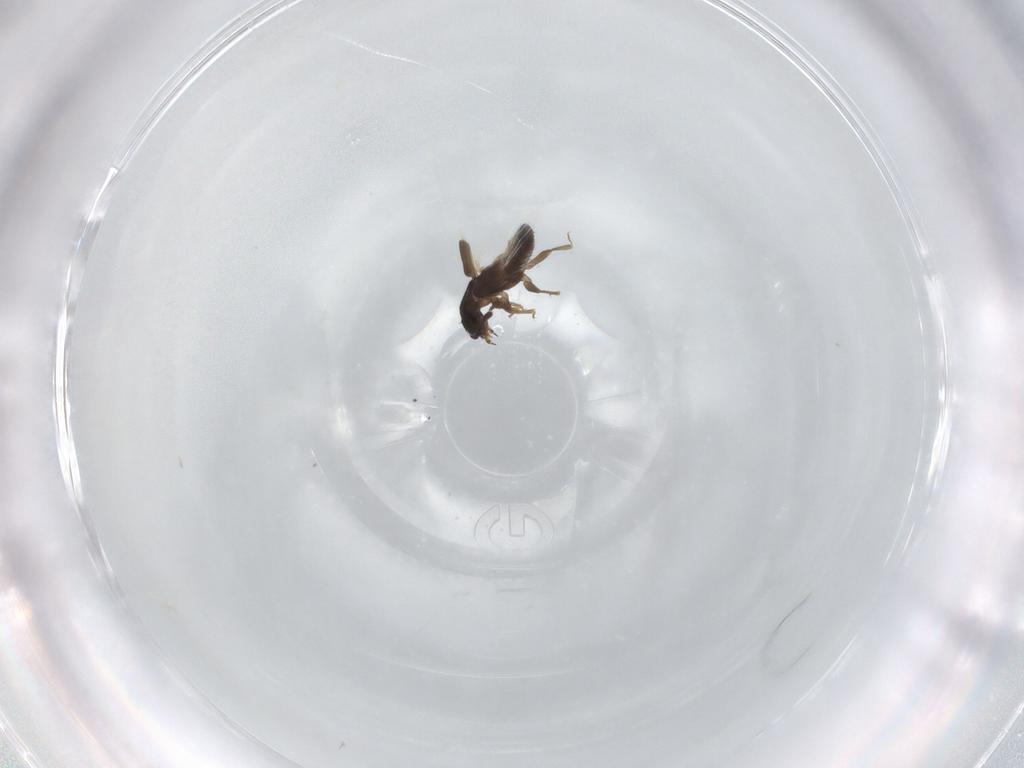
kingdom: Animalia
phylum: Arthropoda
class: Insecta
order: Coleoptera
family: Staphylinidae
